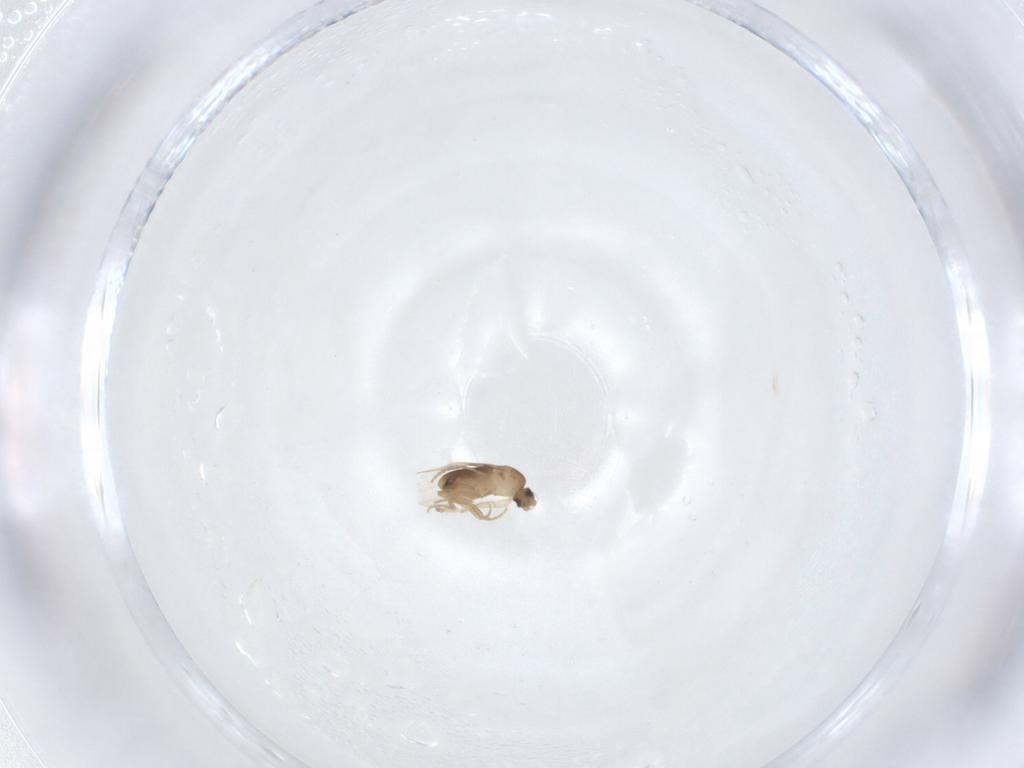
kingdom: Animalia
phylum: Arthropoda
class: Insecta
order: Diptera
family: Phoridae
